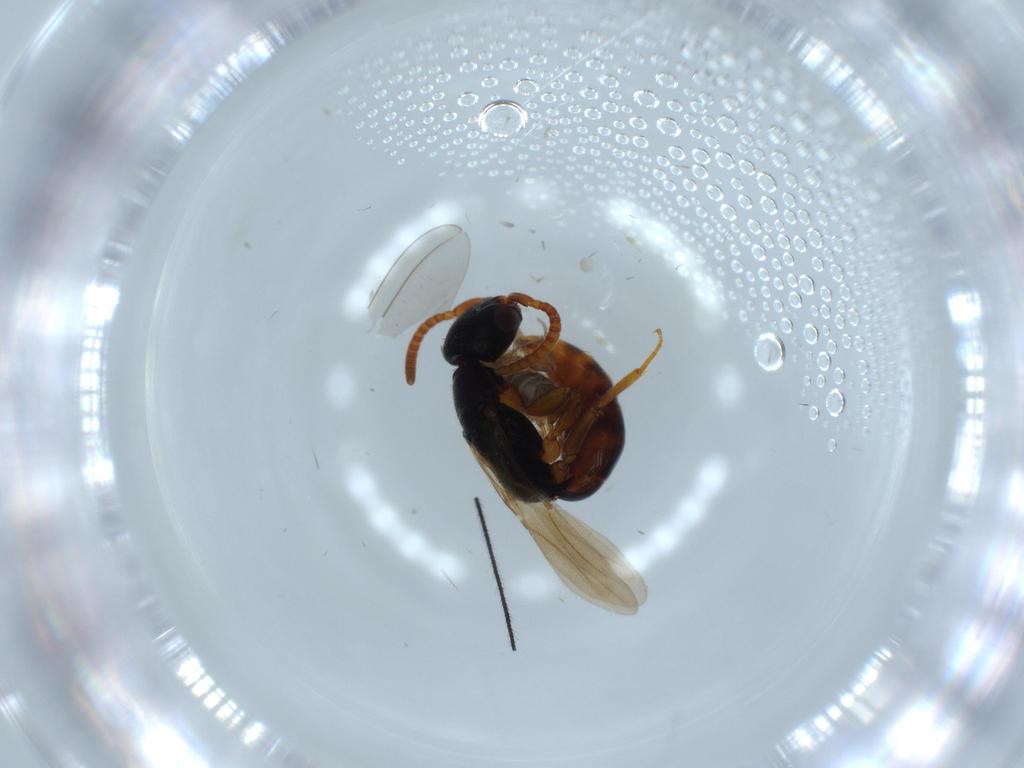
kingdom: Animalia
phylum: Arthropoda
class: Insecta
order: Hymenoptera
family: Bethylidae
